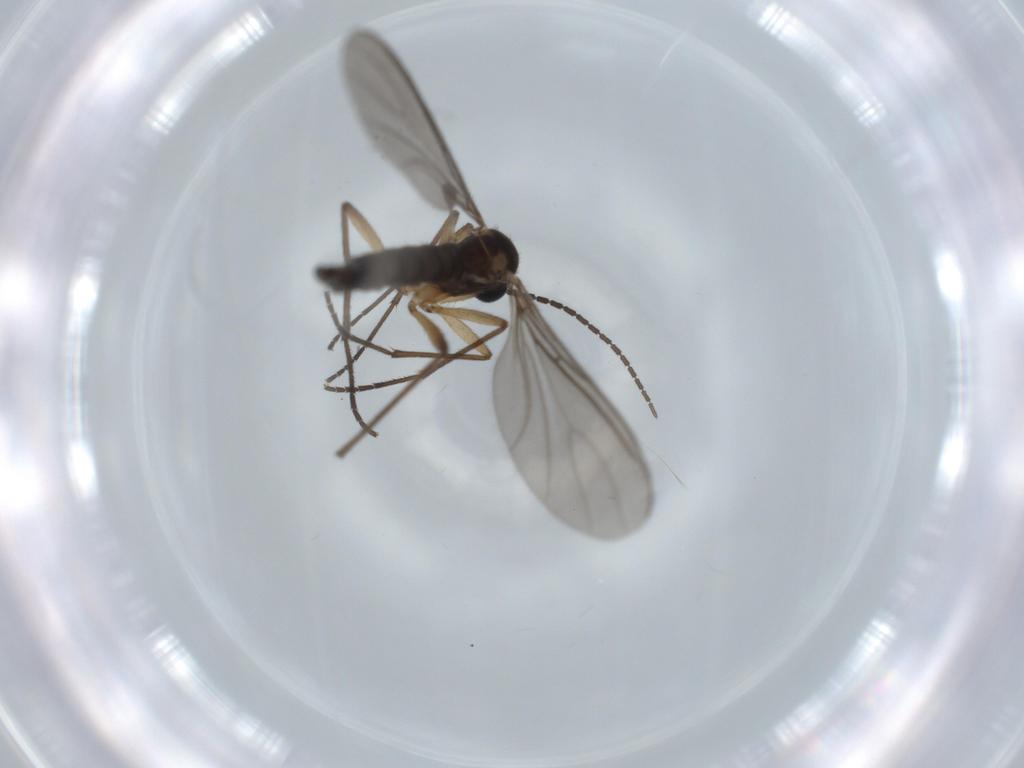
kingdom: Animalia
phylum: Arthropoda
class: Insecta
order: Diptera
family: Sciaridae
